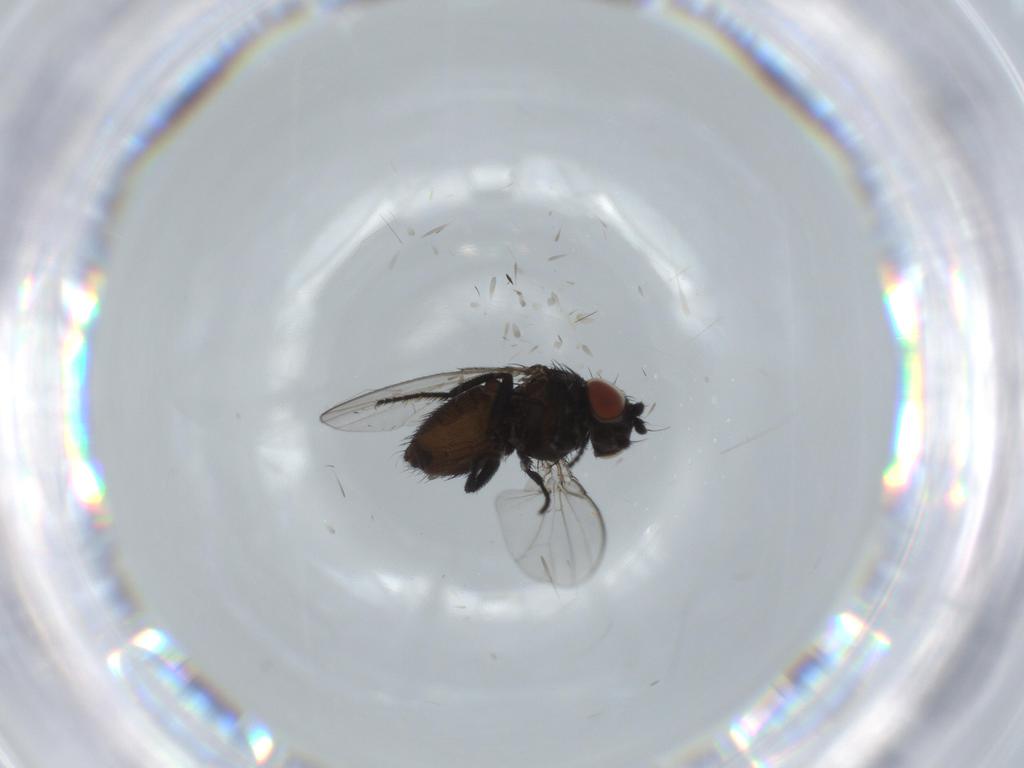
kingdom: Animalia
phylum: Arthropoda
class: Insecta
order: Diptera
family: Milichiidae
